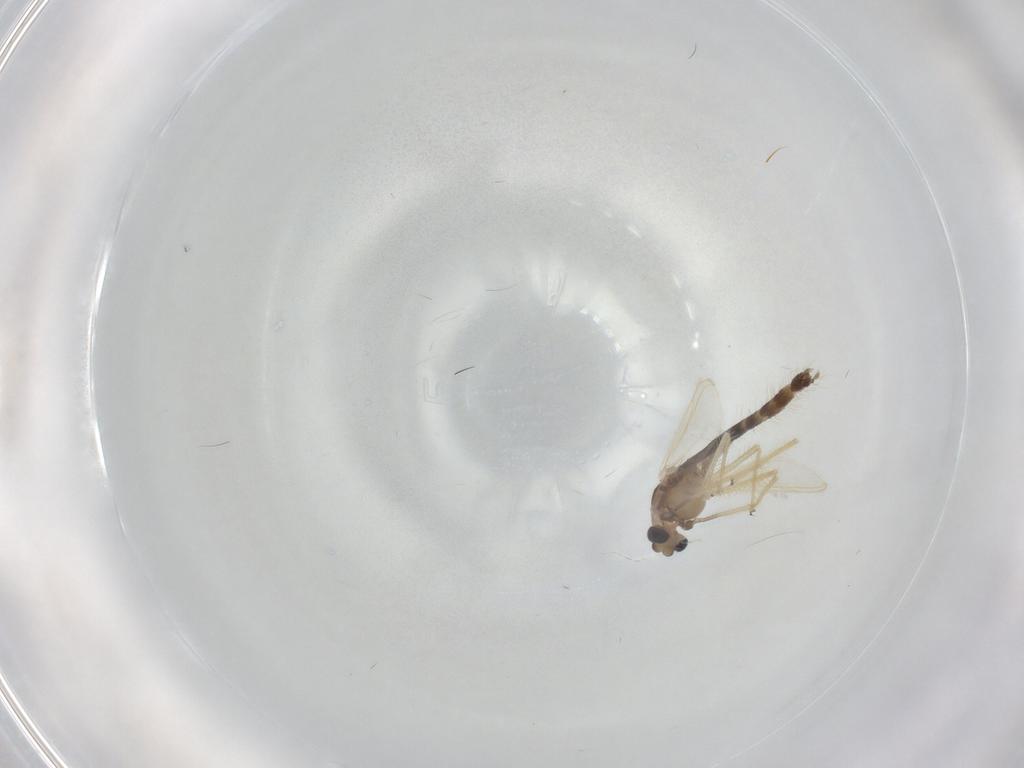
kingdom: Animalia
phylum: Arthropoda
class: Insecta
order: Diptera
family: Chironomidae
